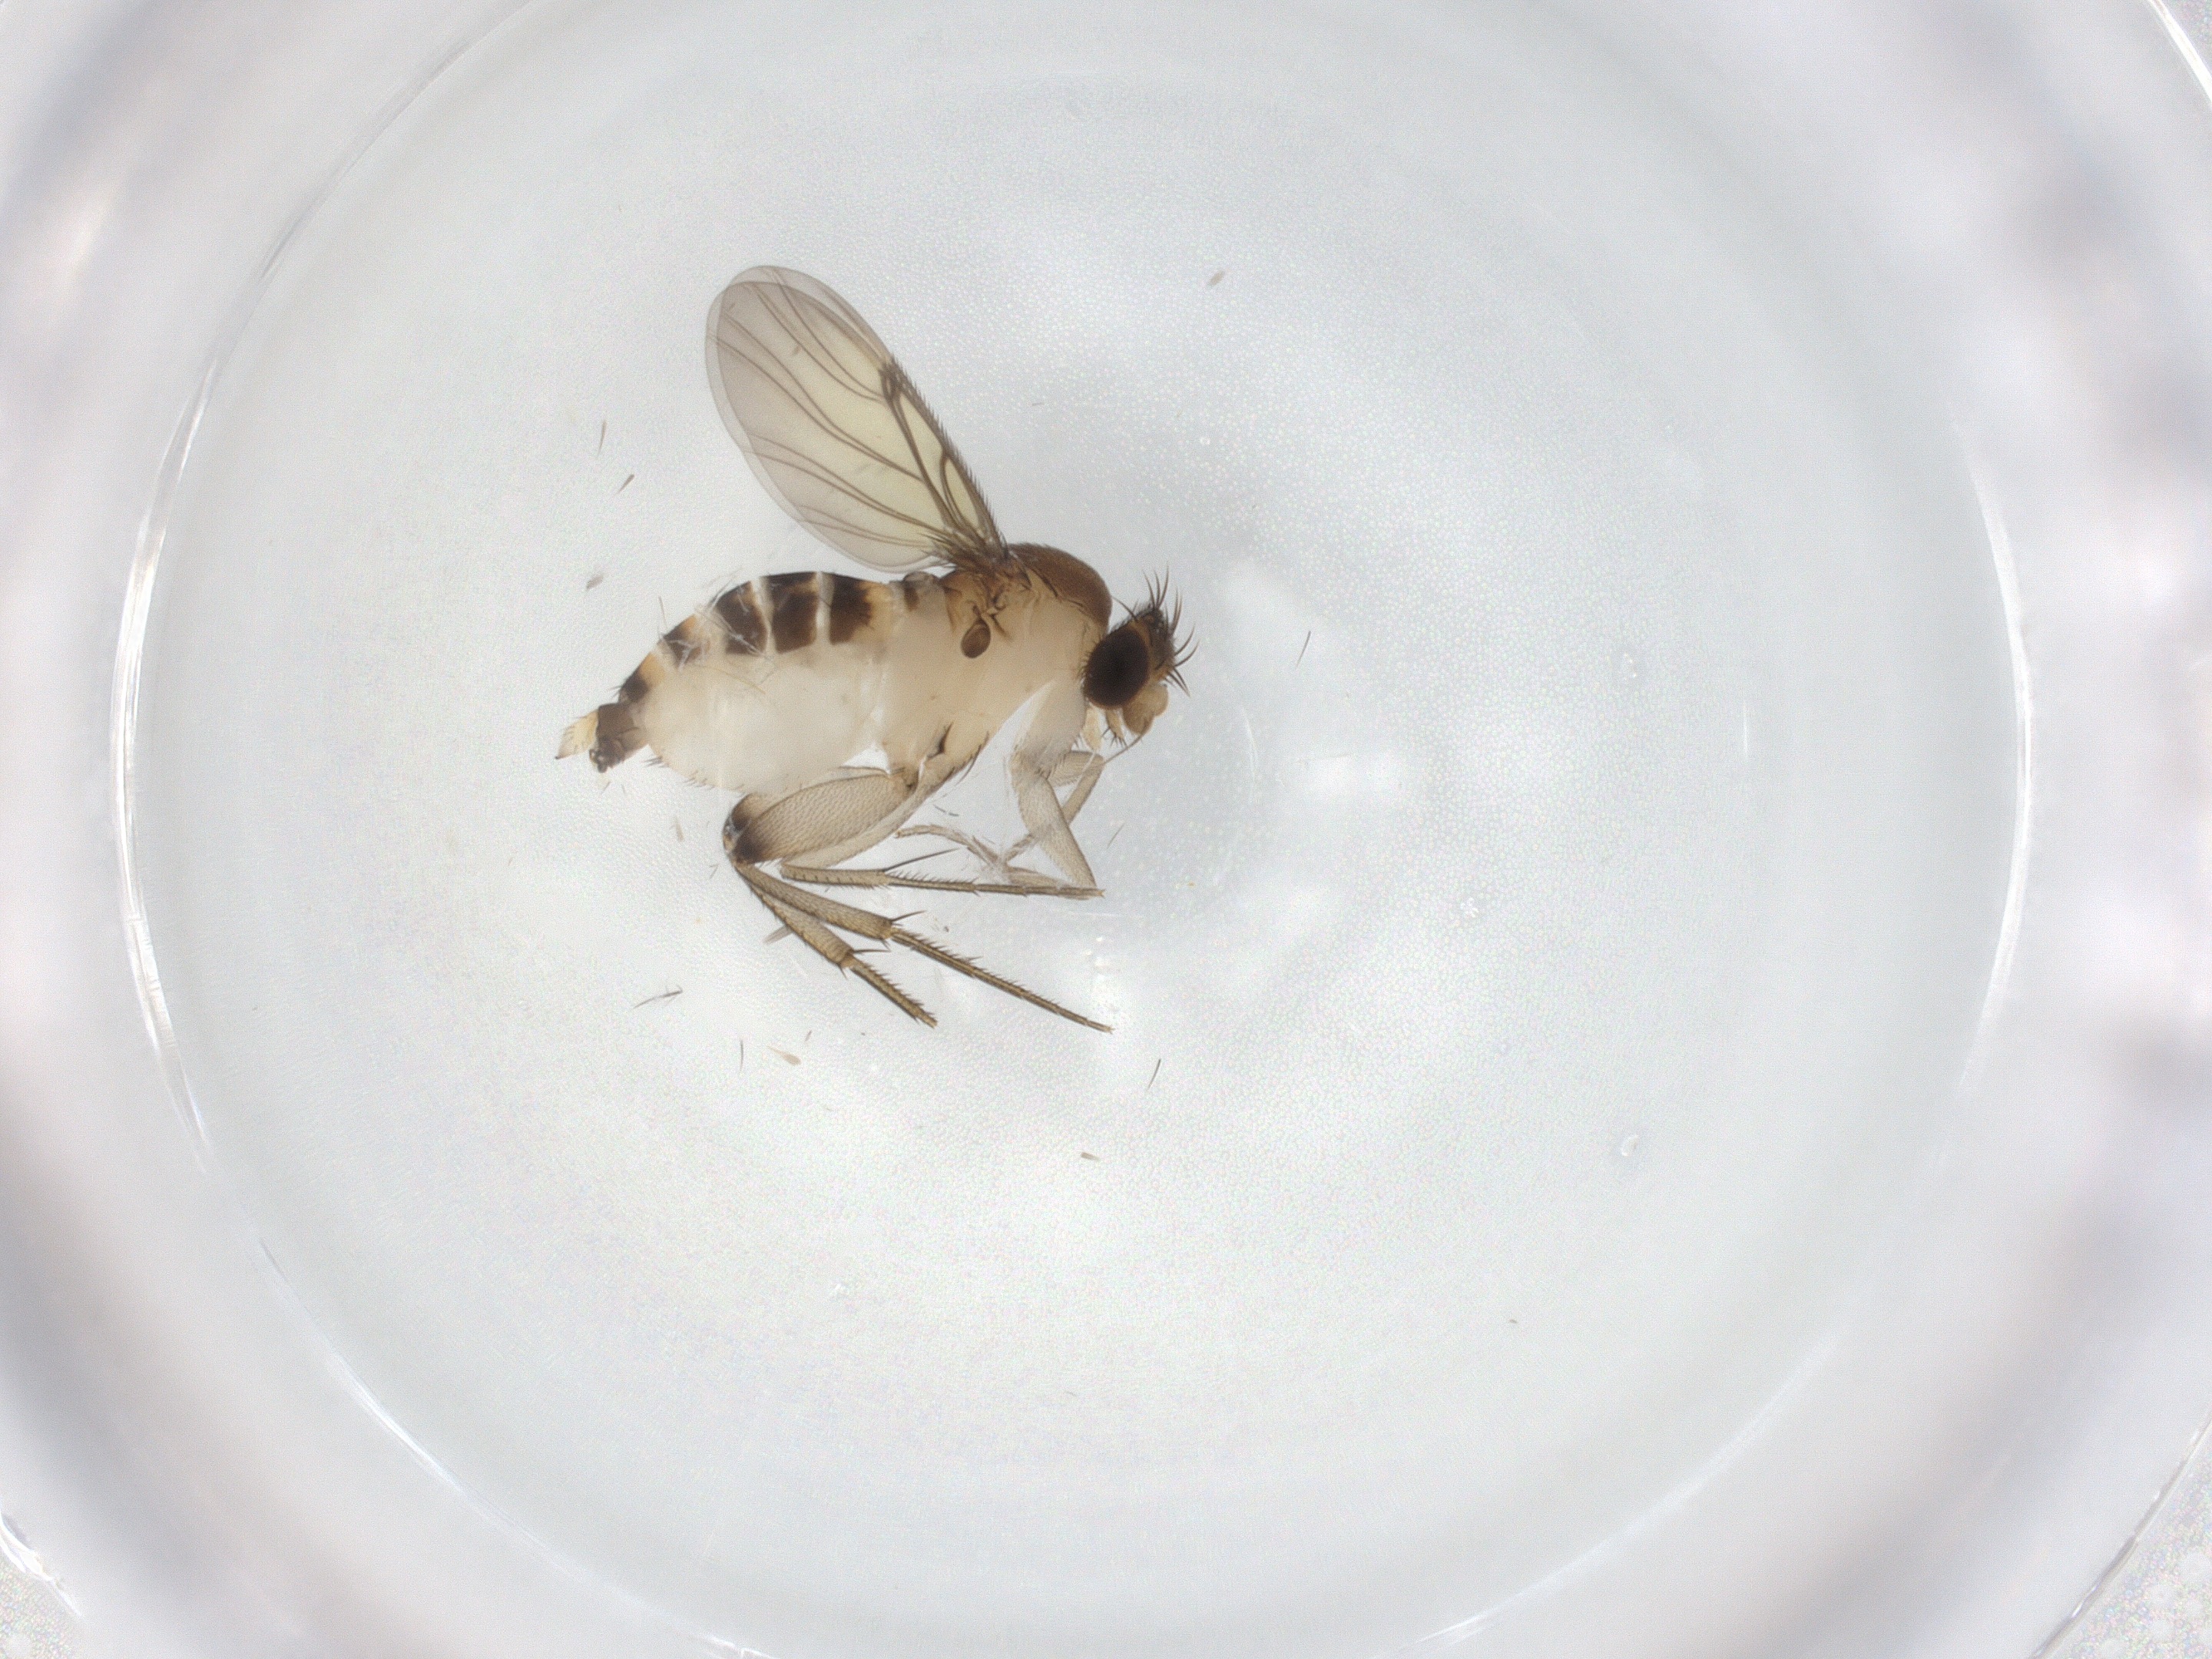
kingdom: Animalia
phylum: Arthropoda
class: Insecta
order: Diptera
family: Phoridae
